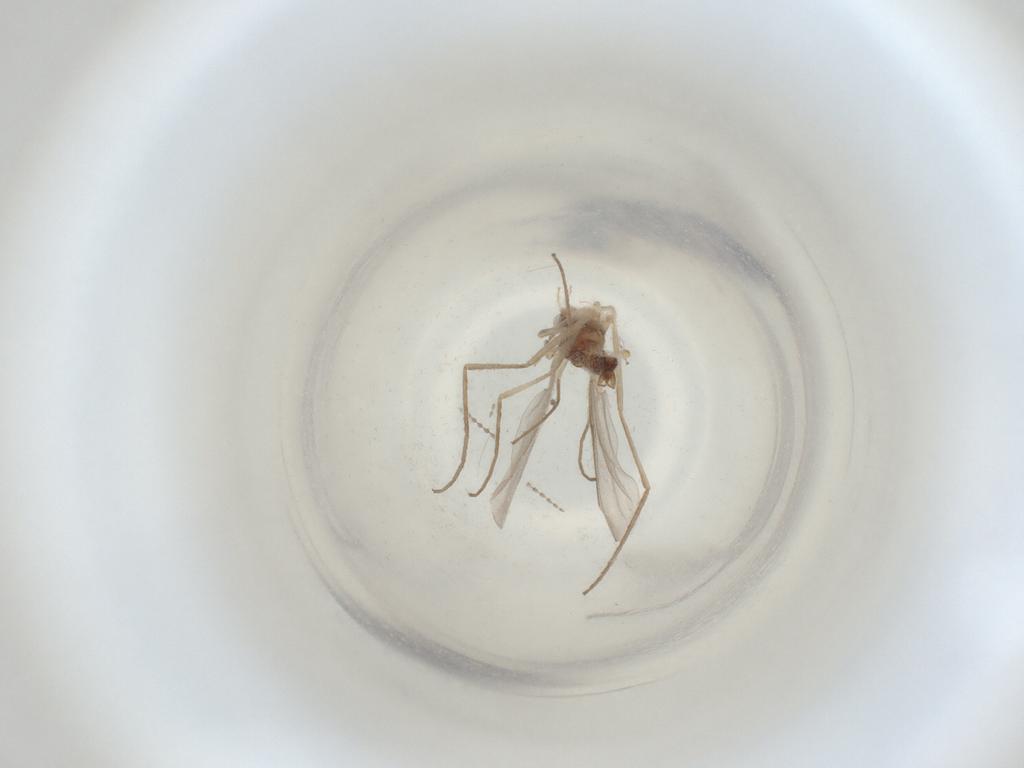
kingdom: Animalia
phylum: Arthropoda
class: Insecta
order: Diptera
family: Cecidomyiidae
